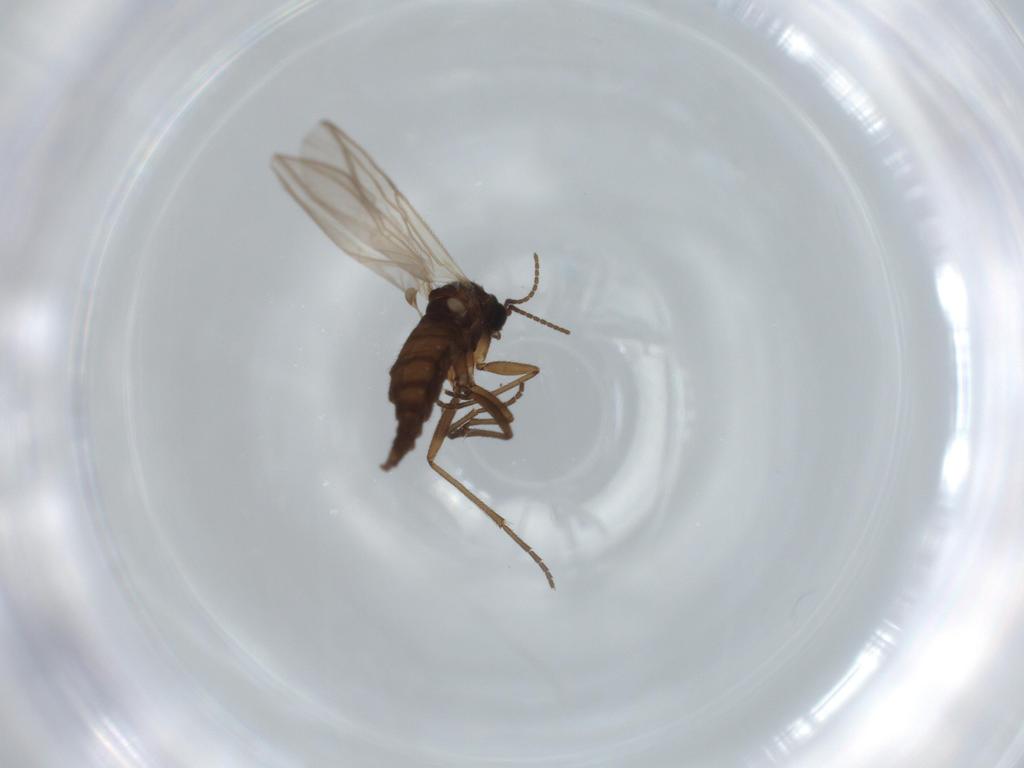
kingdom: Animalia
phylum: Arthropoda
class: Insecta
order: Diptera
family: Sciaridae
